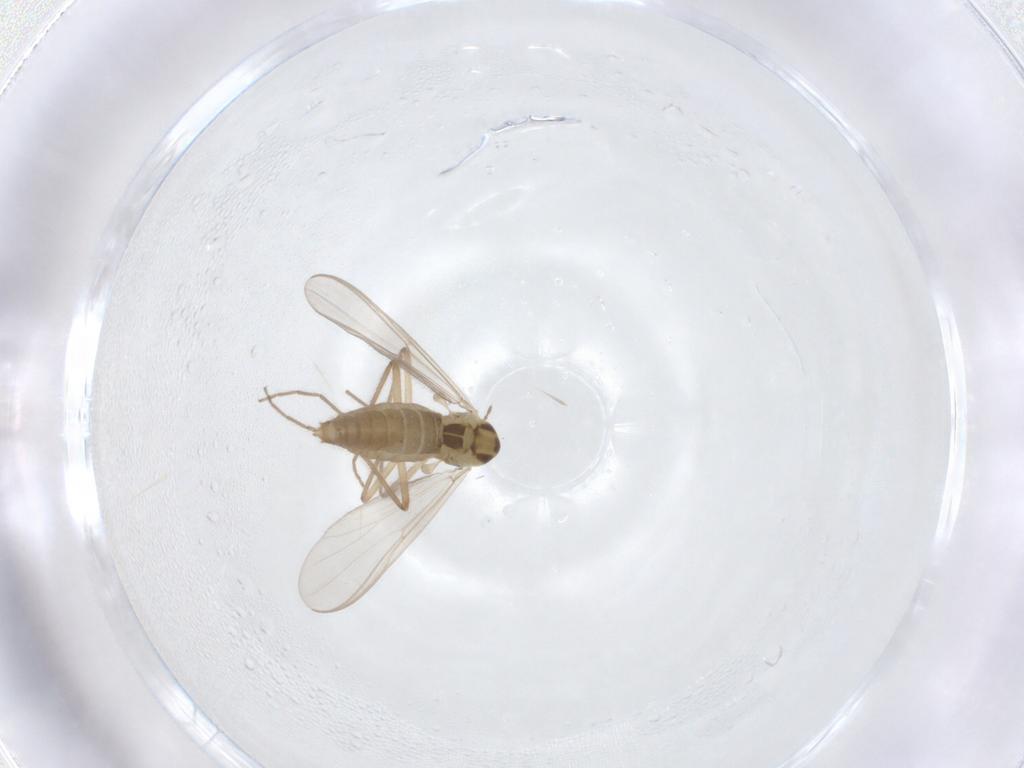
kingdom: Animalia
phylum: Arthropoda
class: Insecta
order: Diptera
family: Chironomidae
